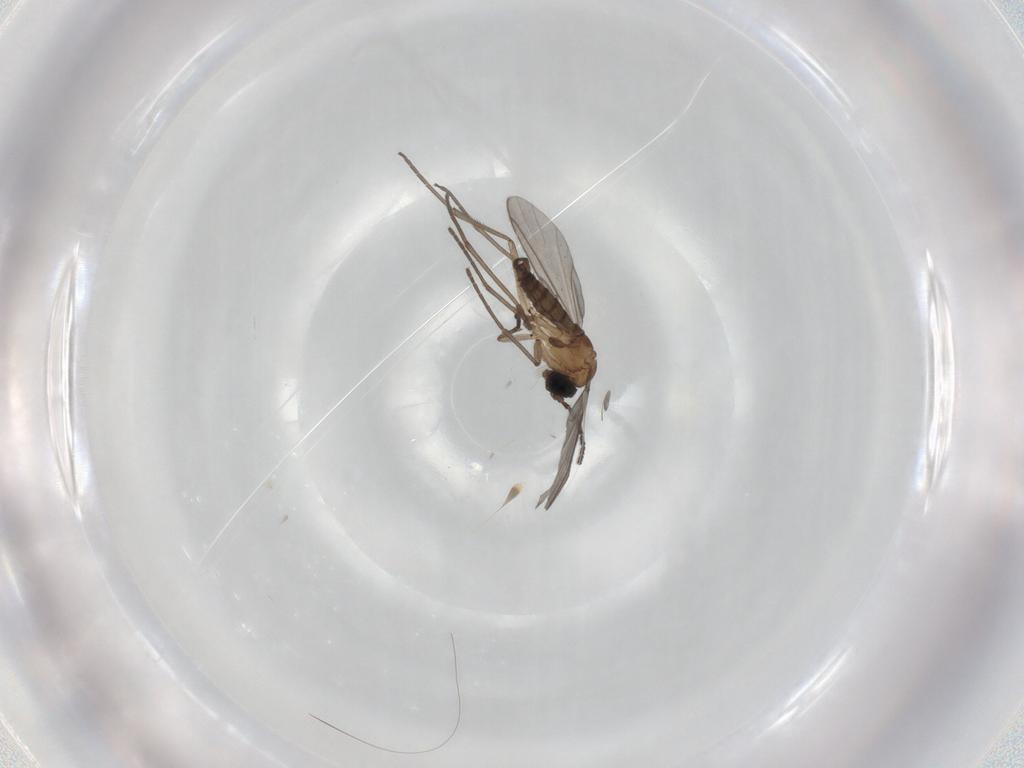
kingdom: Animalia
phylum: Arthropoda
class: Insecta
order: Diptera
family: Sciaridae
